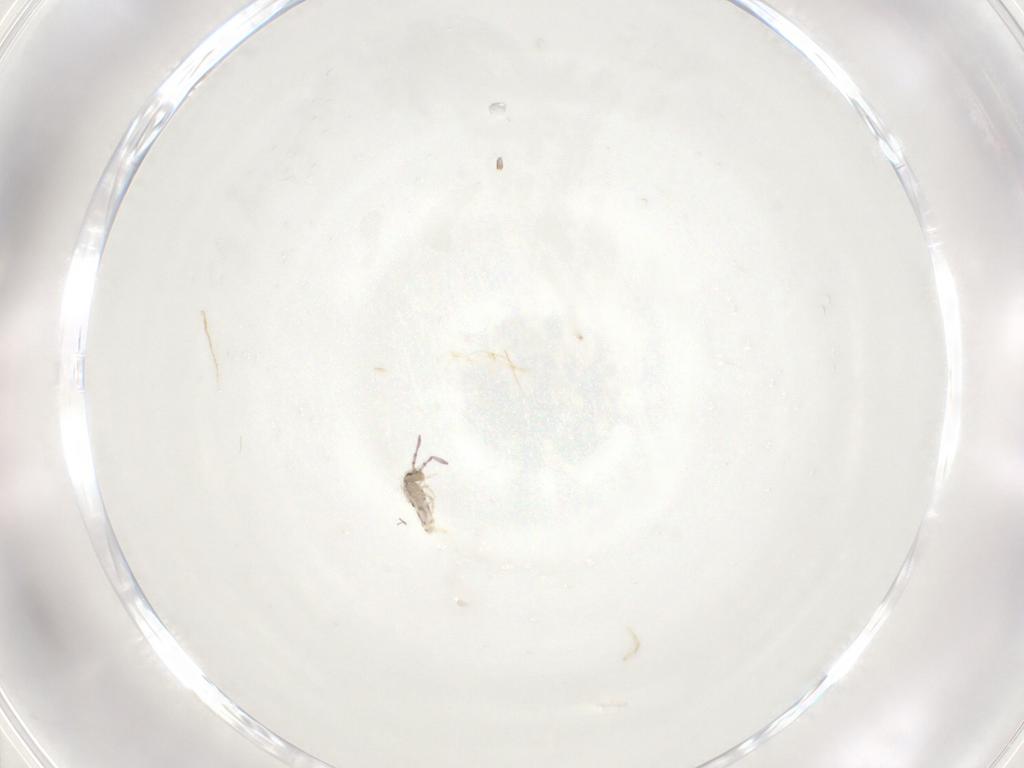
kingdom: Animalia
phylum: Arthropoda
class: Collembola
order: Entomobryomorpha
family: Entomobryidae
